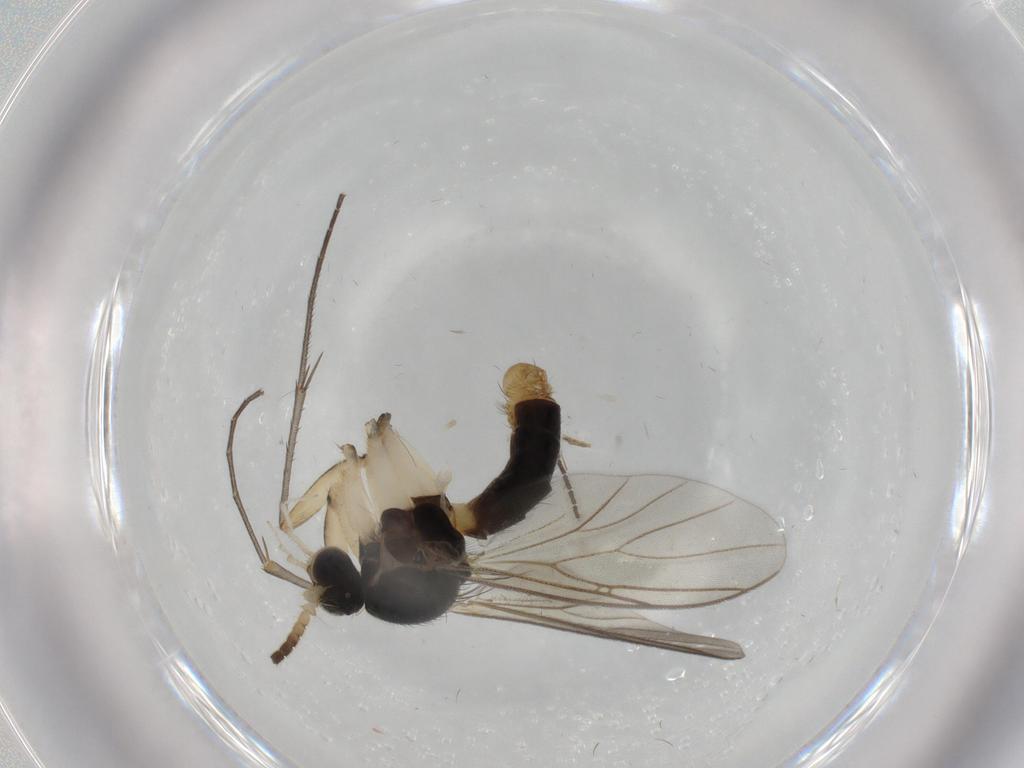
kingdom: Animalia
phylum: Arthropoda
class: Insecta
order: Diptera
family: Hybotidae
